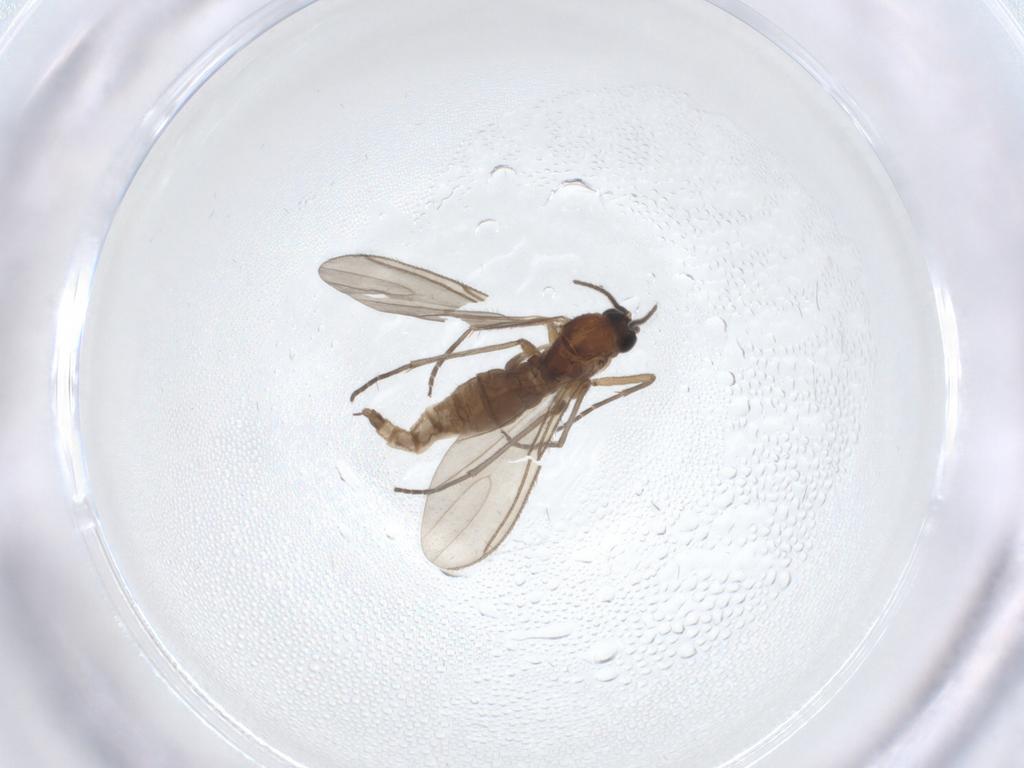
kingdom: Animalia
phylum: Arthropoda
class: Insecta
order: Diptera
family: Sciaridae
